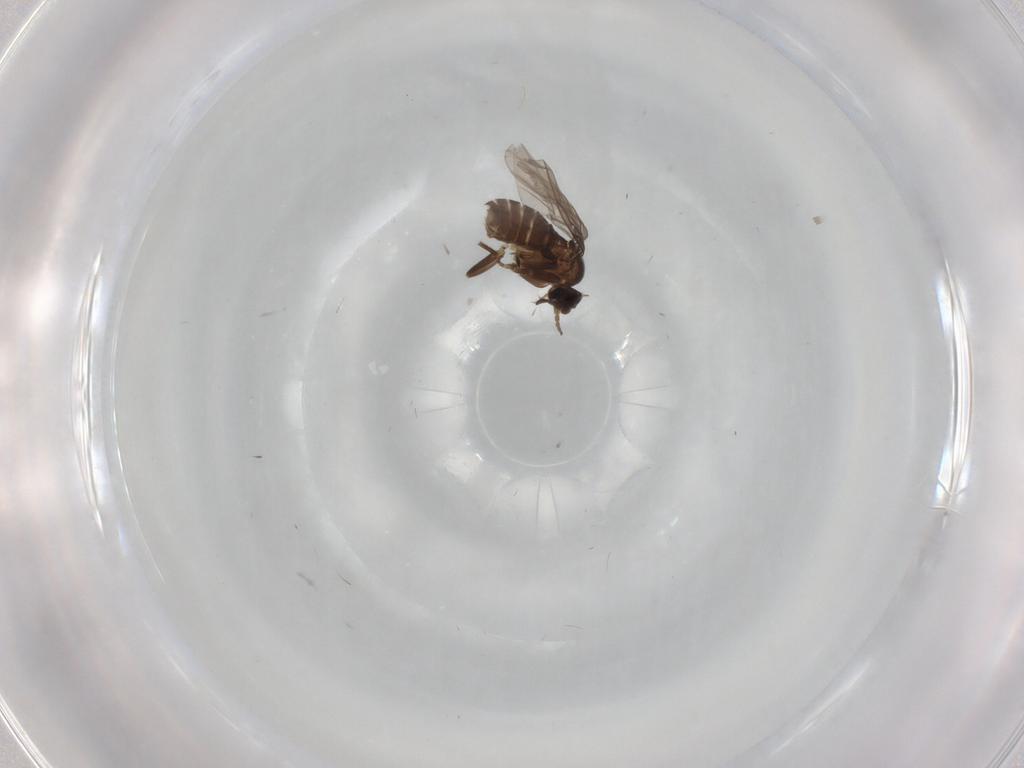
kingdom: Animalia
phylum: Arthropoda
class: Insecta
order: Diptera
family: Phoridae
